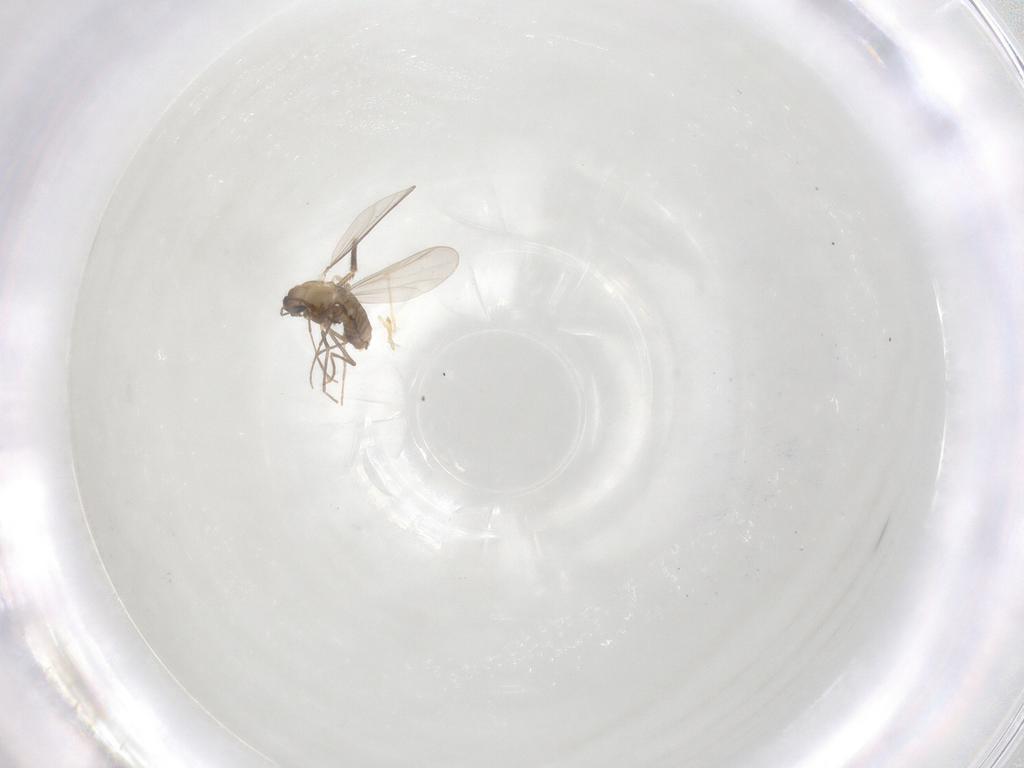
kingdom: Animalia
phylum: Arthropoda
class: Insecta
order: Diptera
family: Chironomidae
